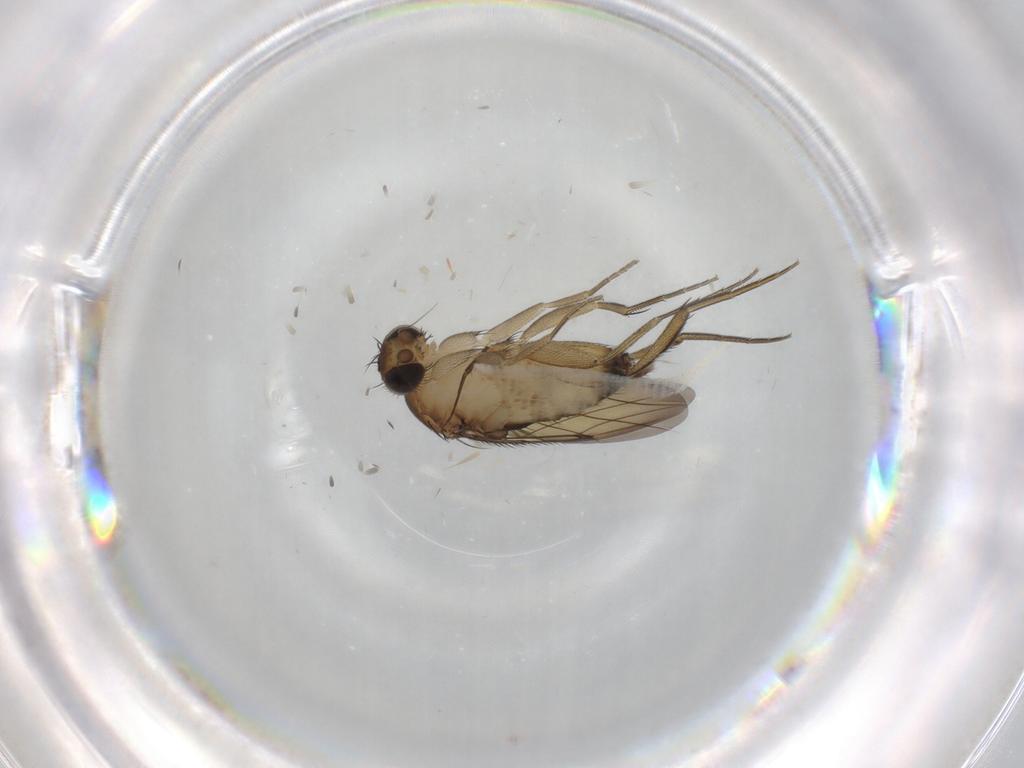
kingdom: Animalia
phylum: Arthropoda
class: Insecta
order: Diptera
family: Phoridae
